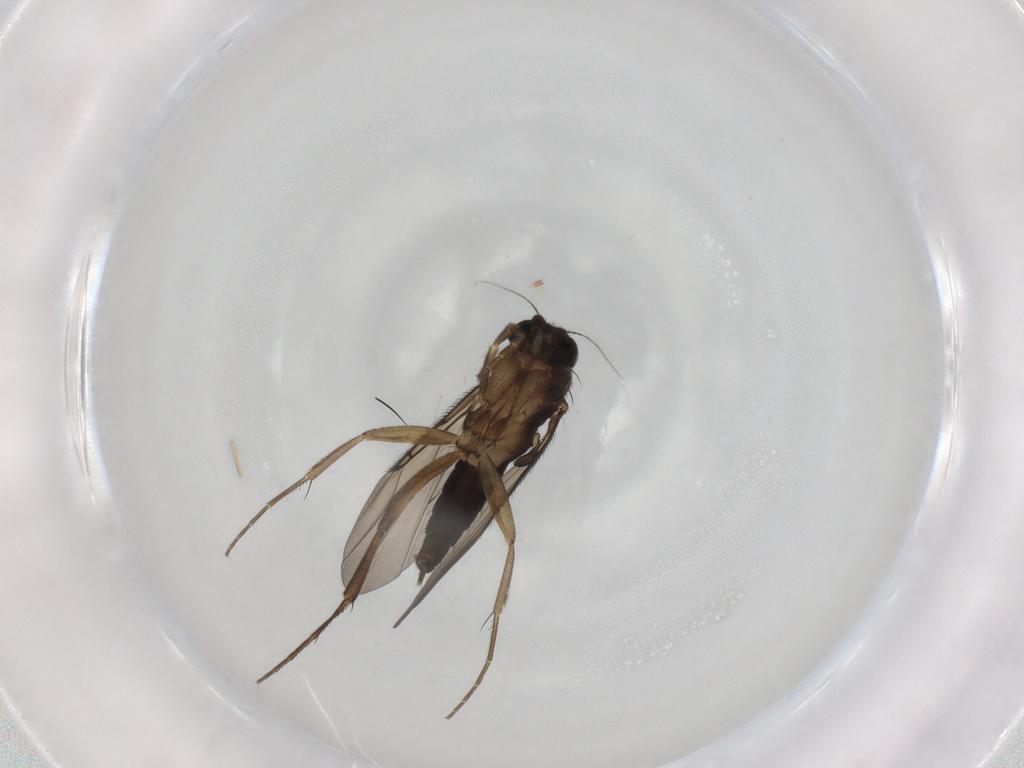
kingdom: Animalia
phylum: Arthropoda
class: Insecta
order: Diptera
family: Phoridae
